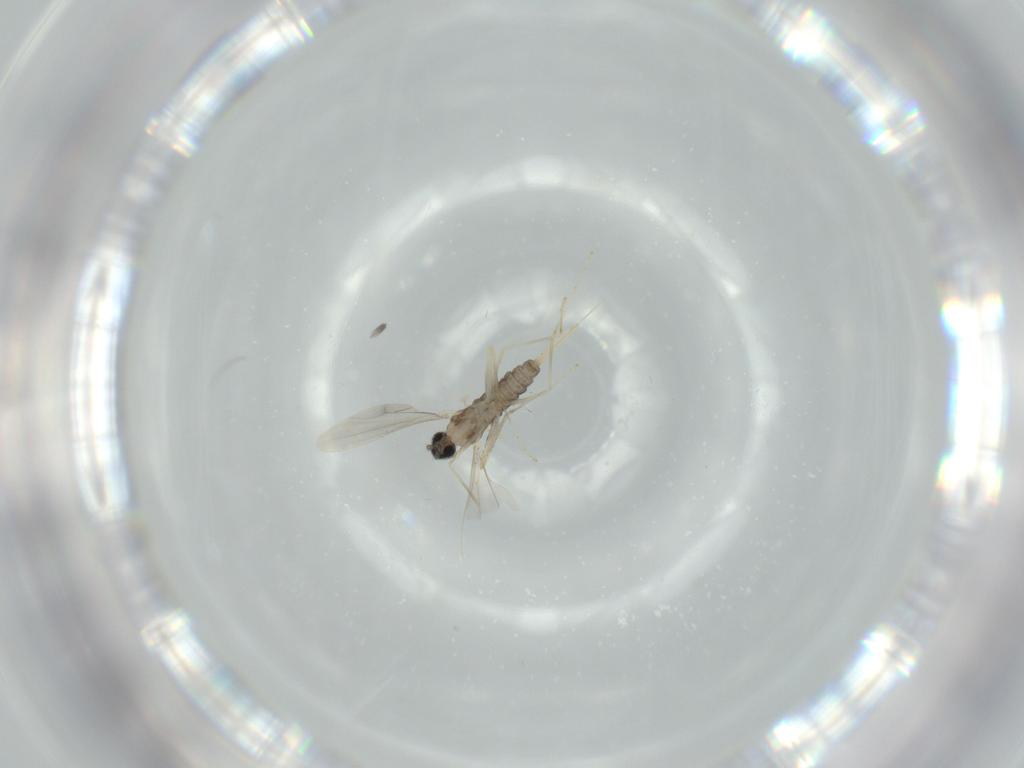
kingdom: Animalia
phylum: Arthropoda
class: Insecta
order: Diptera
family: Cecidomyiidae
